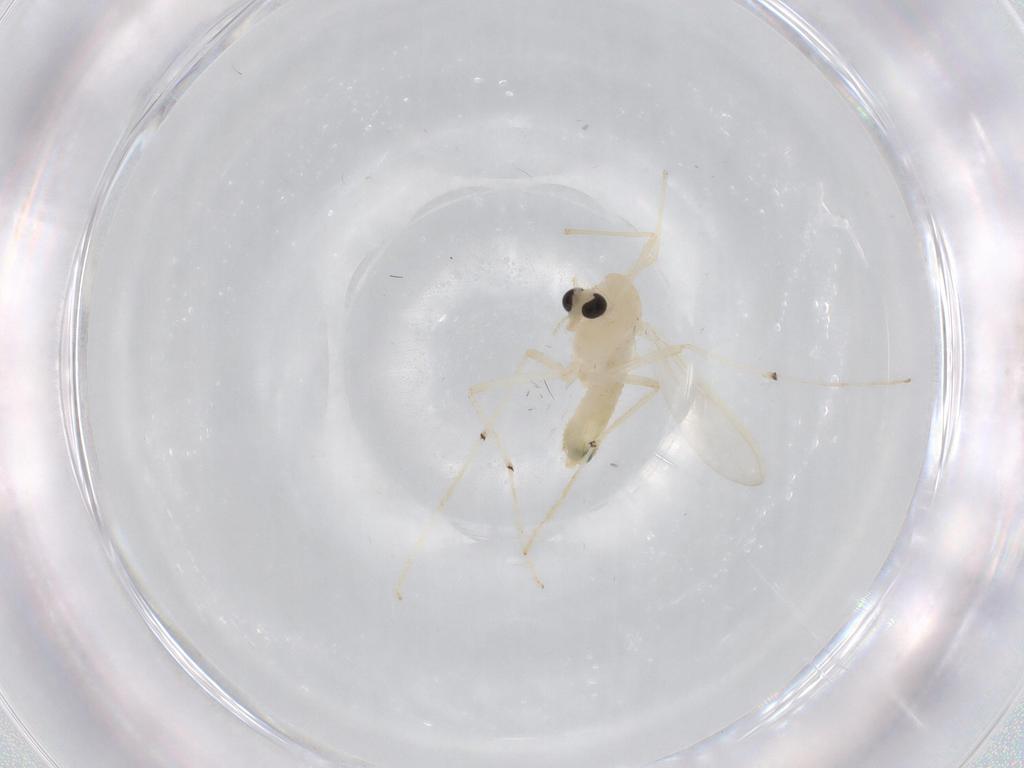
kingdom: Animalia
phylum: Arthropoda
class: Insecta
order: Diptera
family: Chironomidae
